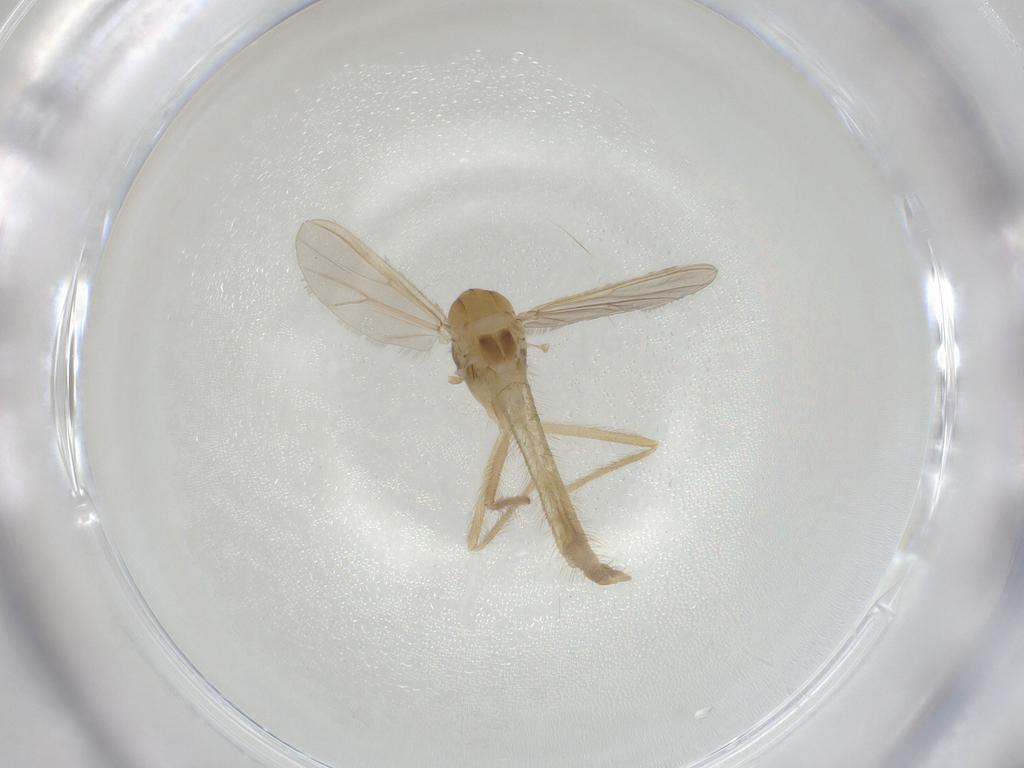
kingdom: Animalia
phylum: Arthropoda
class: Insecta
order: Diptera
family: Chironomidae
